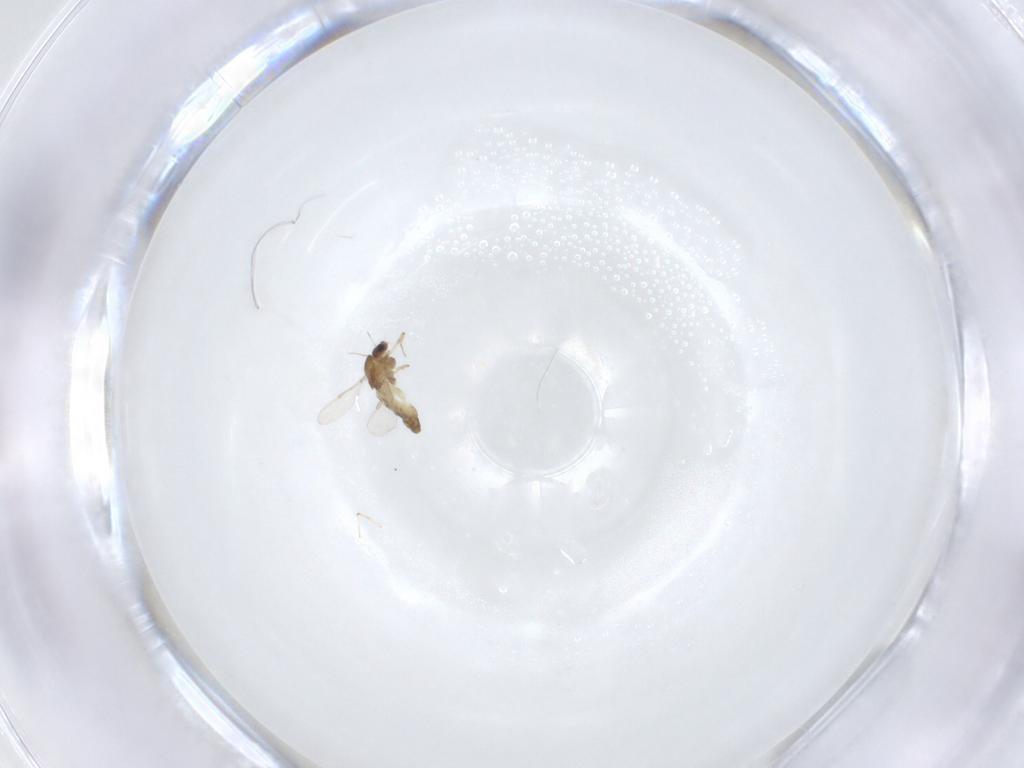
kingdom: Animalia
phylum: Arthropoda
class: Insecta
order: Diptera
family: Chironomidae
